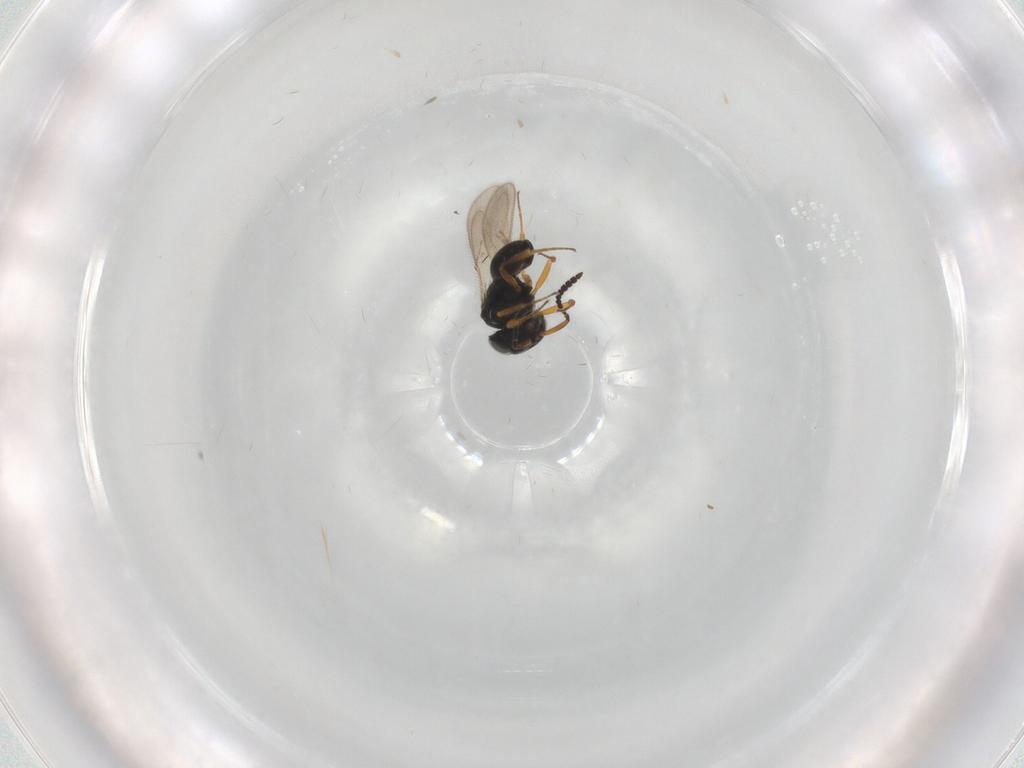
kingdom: Animalia
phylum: Arthropoda
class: Insecta
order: Hymenoptera
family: Scelionidae
